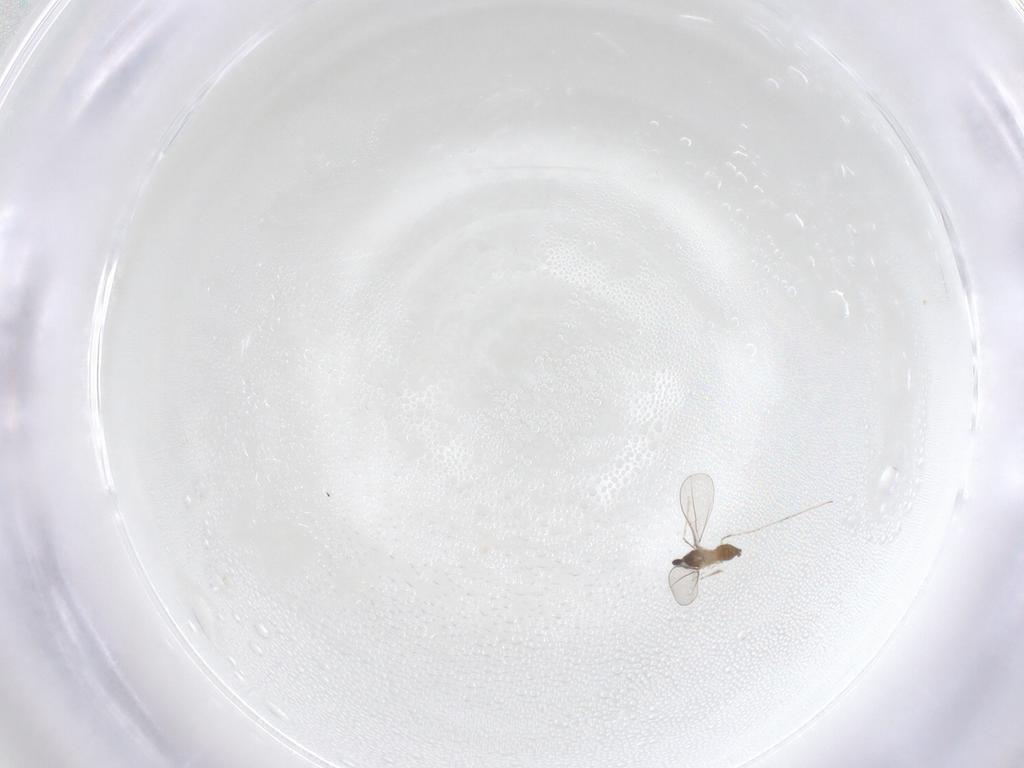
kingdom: Animalia
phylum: Arthropoda
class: Insecta
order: Diptera
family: Cecidomyiidae
